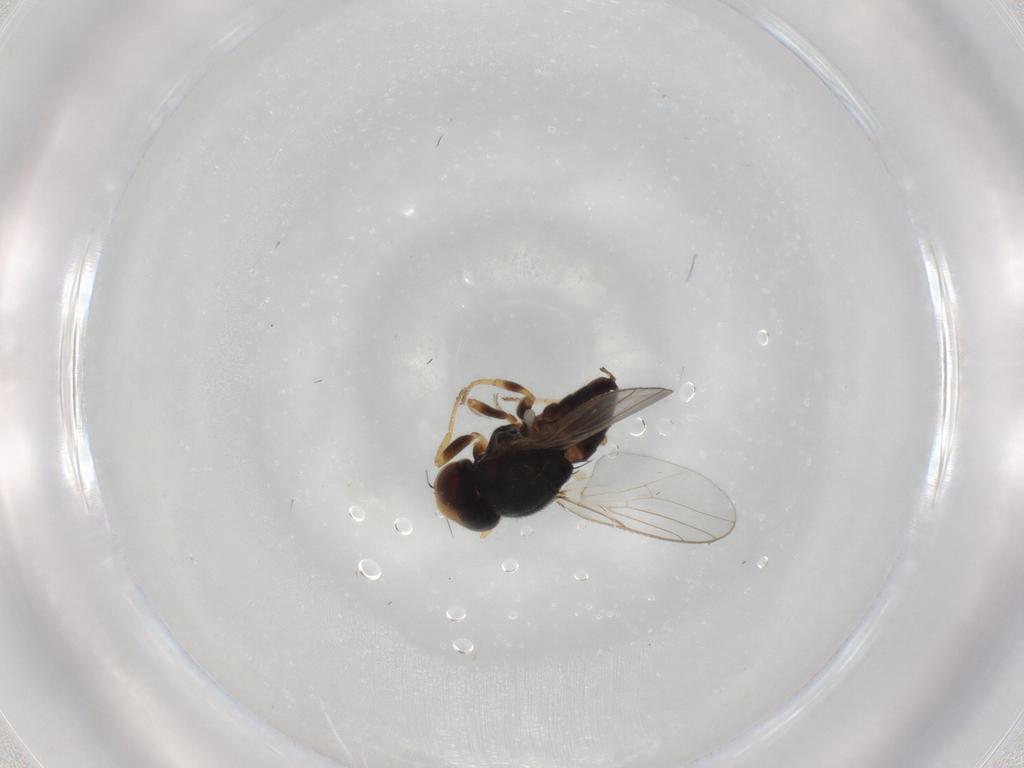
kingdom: Animalia
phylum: Arthropoda
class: Insecta
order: Diptera
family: Chloropidae
